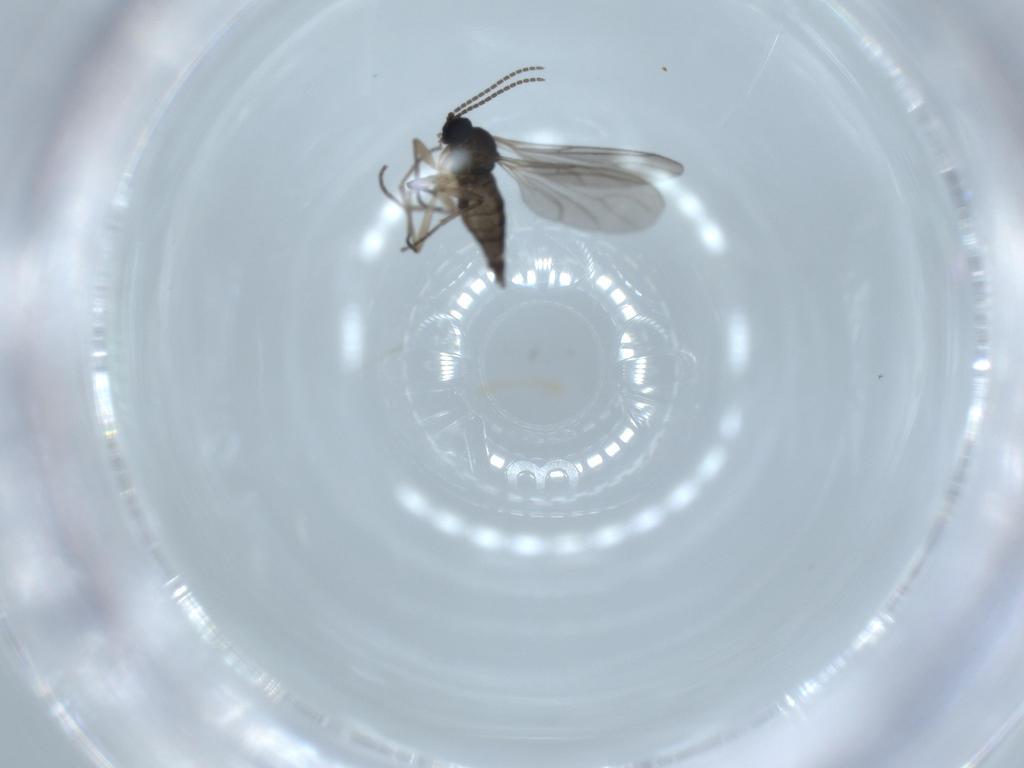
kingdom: Animalia
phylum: Arthropoda
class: Insecta
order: Diptera
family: Sciaridae
